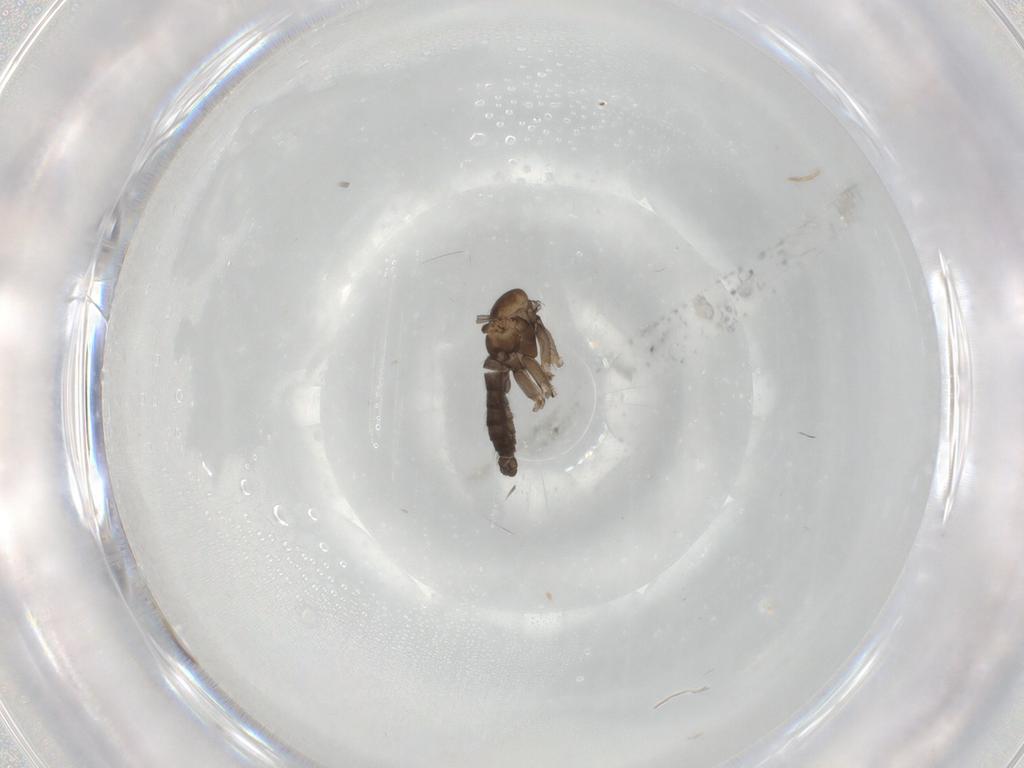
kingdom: Animalia
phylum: Arthropoda
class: Insecta
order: Diptera
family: Sciaridae
